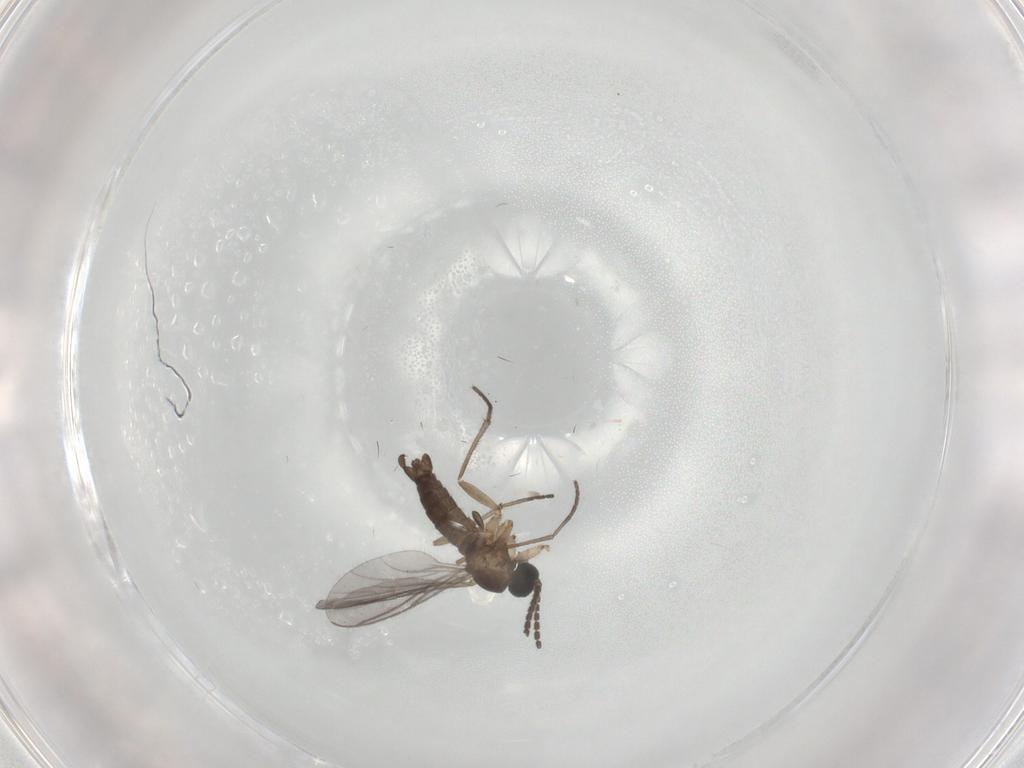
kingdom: Animalia
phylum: Arthropoda
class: Insecta
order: Diptera
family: Sciaridae
